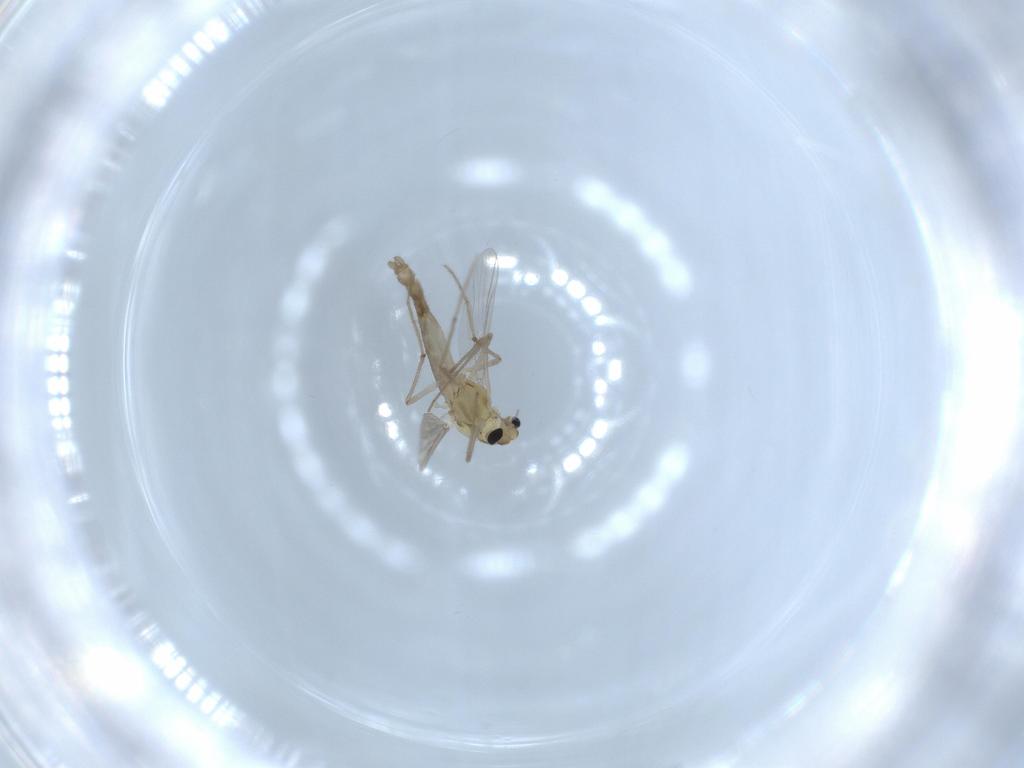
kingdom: Animalia
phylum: Arthropoda
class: Insecta
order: Diptera
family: Chironomidae
